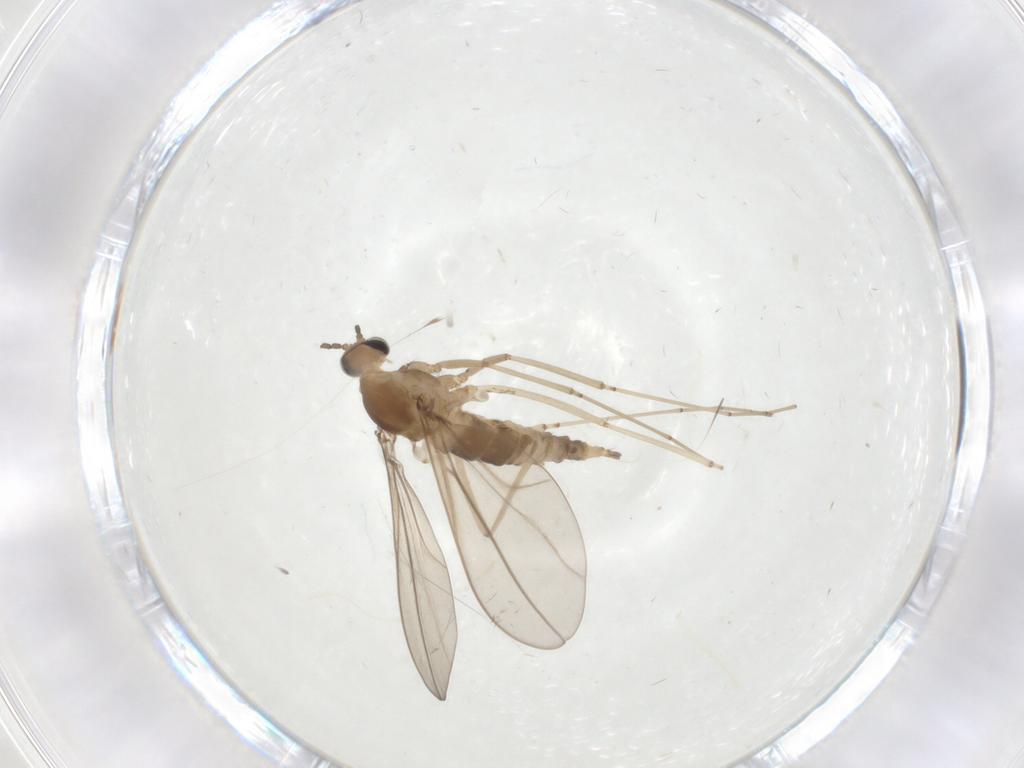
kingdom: Animalia
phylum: Arthropoda
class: Insecta
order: Diptera
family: Cecidomyiidae
